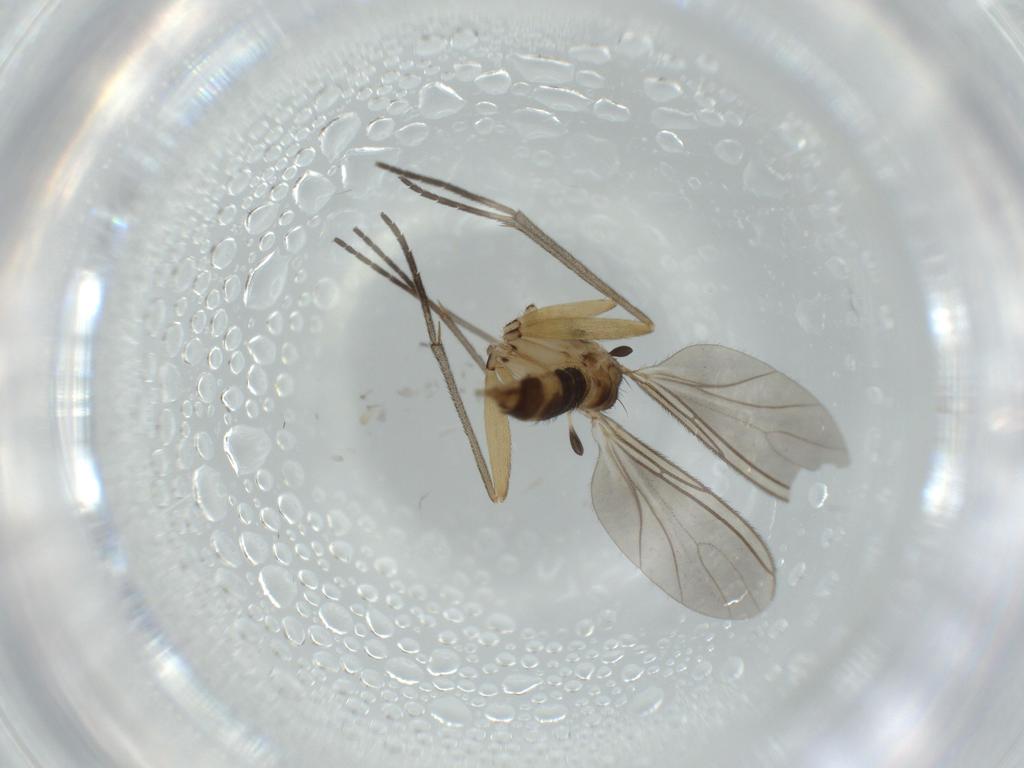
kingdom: Animalia
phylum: Arthropoda
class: Insecta
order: Diptera
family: Sciaridae
